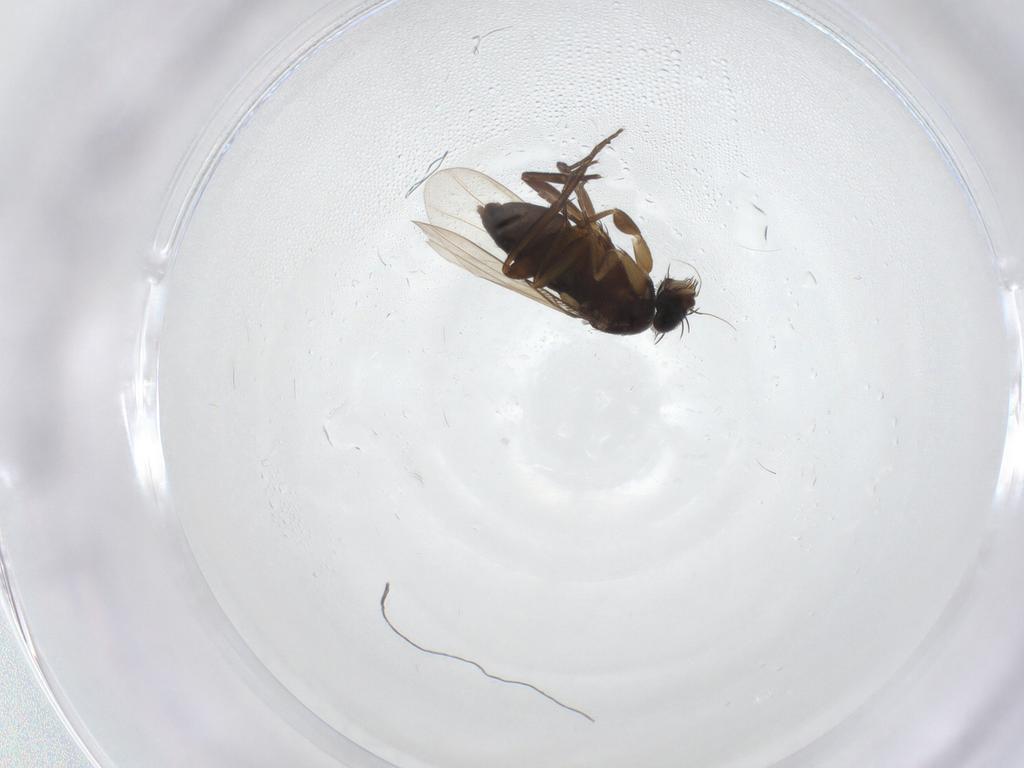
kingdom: Animalia
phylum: Arthropoda
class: Insecta
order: Diptera
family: Phoridae
